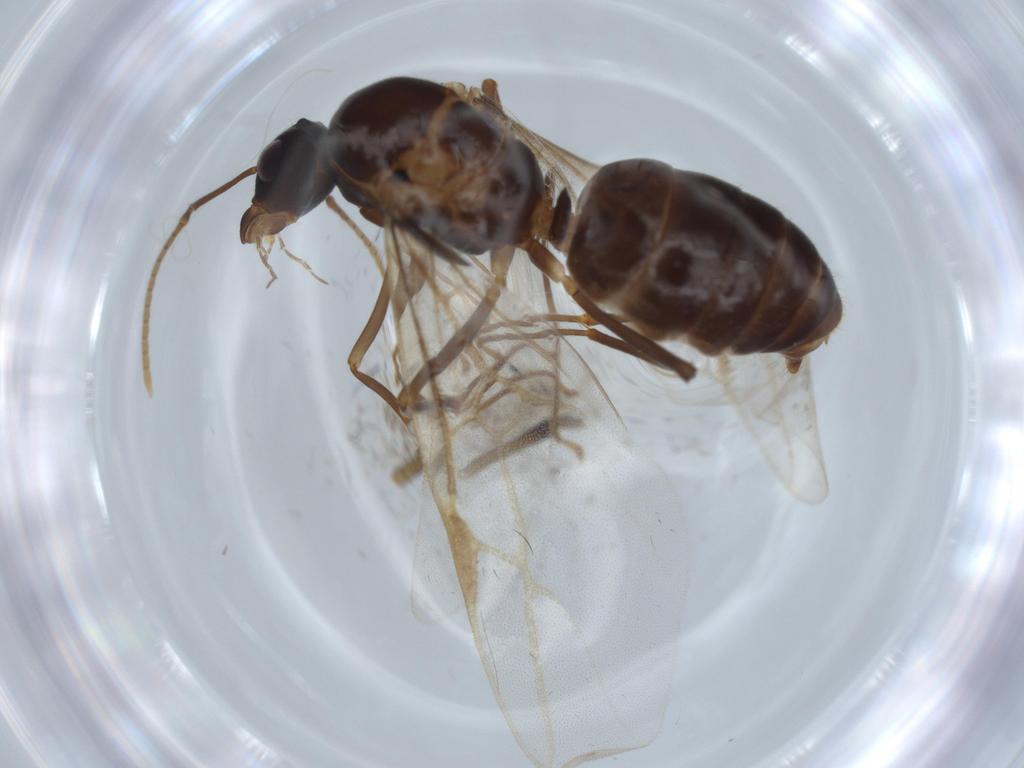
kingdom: Animalia
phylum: Arthropoda
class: Insecta
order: Hymenoptera
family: Formicidae
